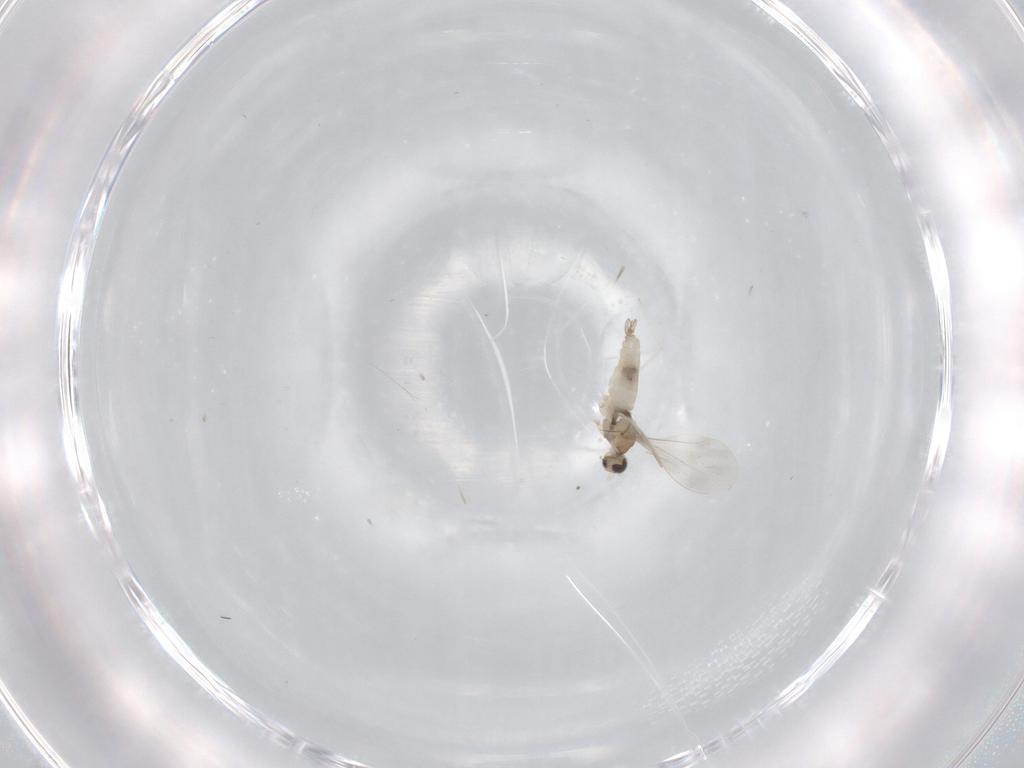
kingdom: Animalia
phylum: Arthropoda
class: Insecta
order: Diptera
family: Cecidomyiidae
